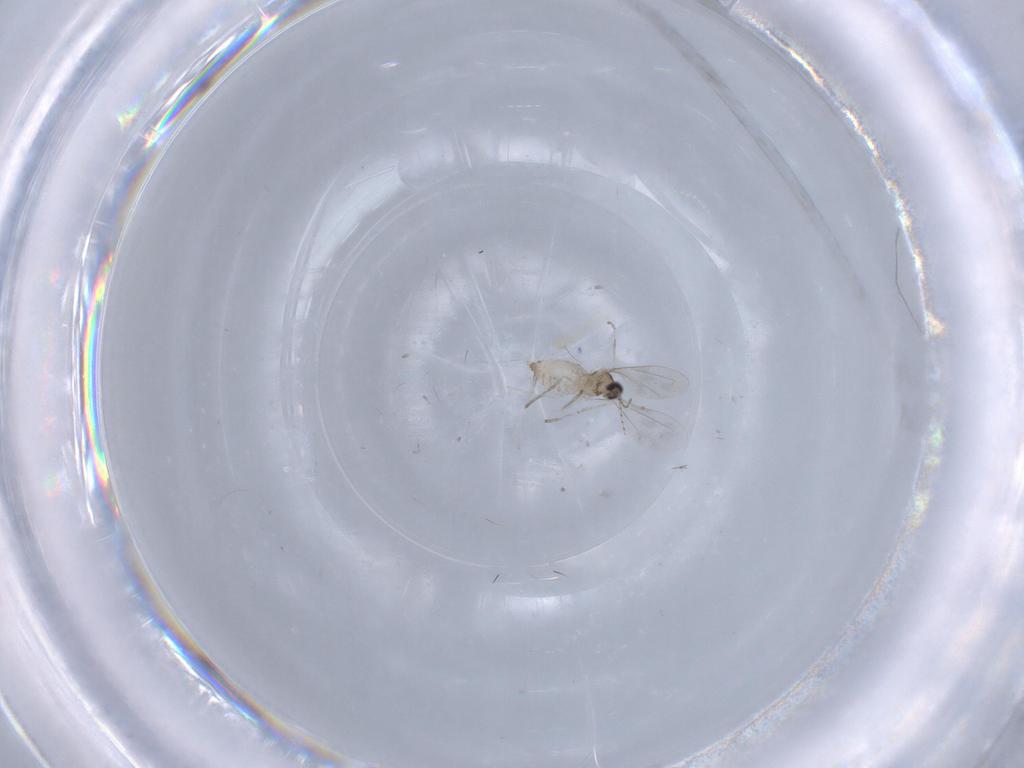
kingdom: Animalia
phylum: Arthropoda
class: Insecta
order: Diptera
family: Cecidomyiidae
